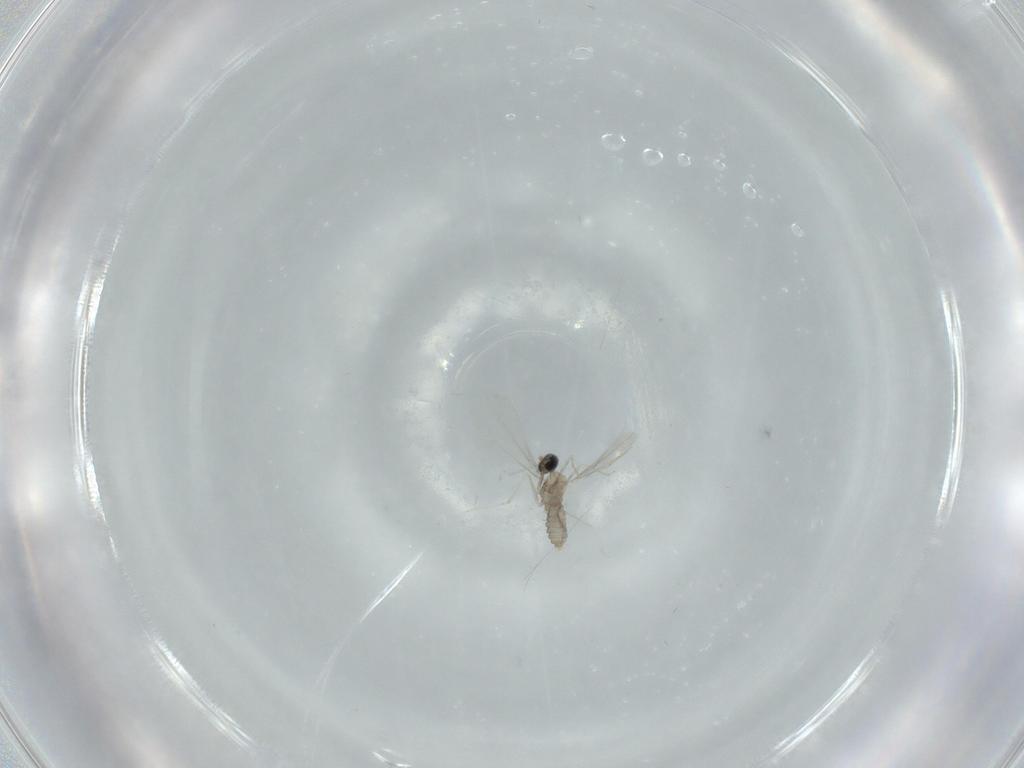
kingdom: Animalia
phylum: Arthropoda
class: Insecta
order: Diptera
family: Cecidomyiidae
